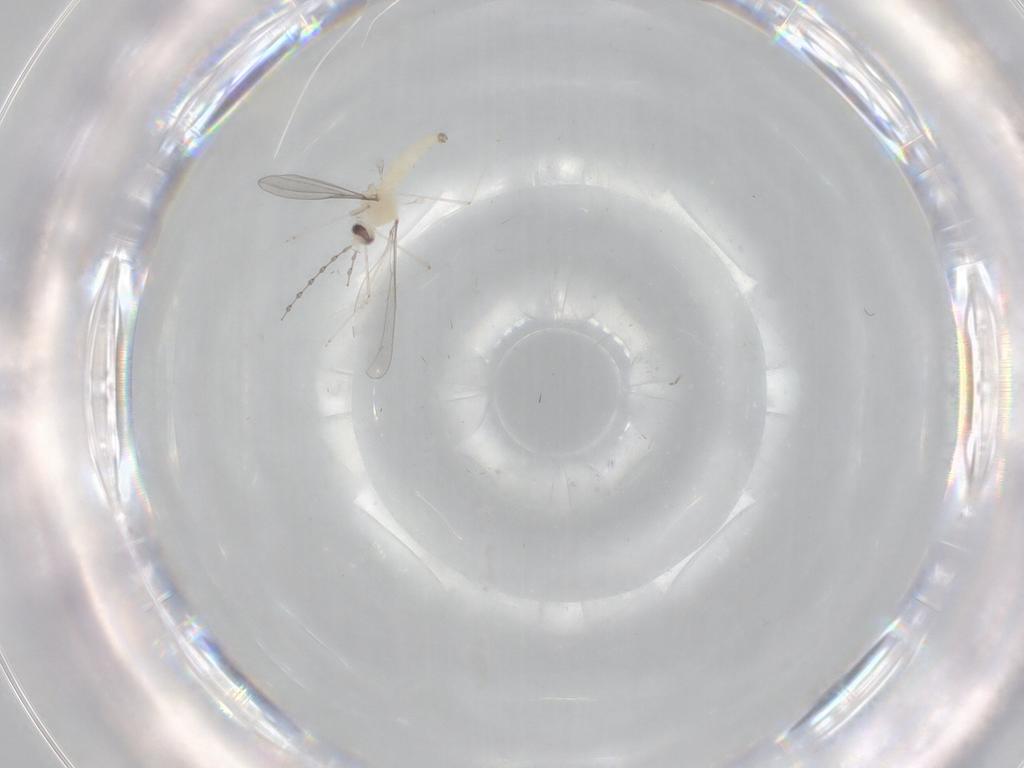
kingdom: Animalia
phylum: Arthropoda
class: Insecta
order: Diptera
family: Cecidomyiidae
